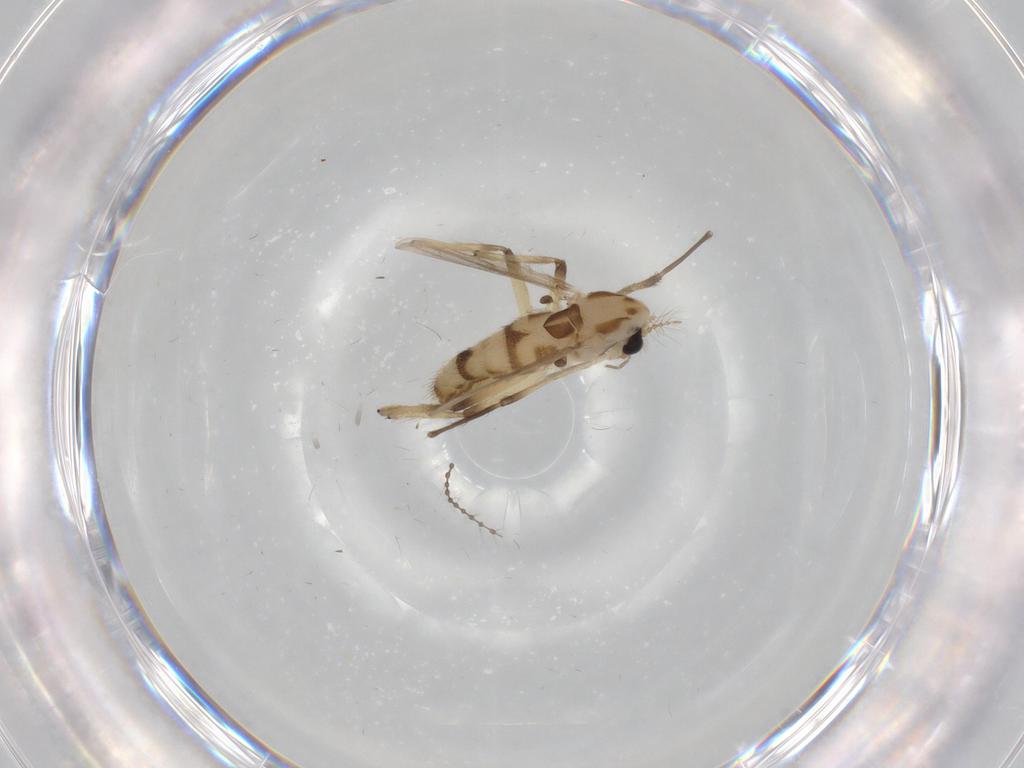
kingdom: Animalia
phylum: Arthropoda
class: Insecta
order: Diptera
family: Chironomidae
